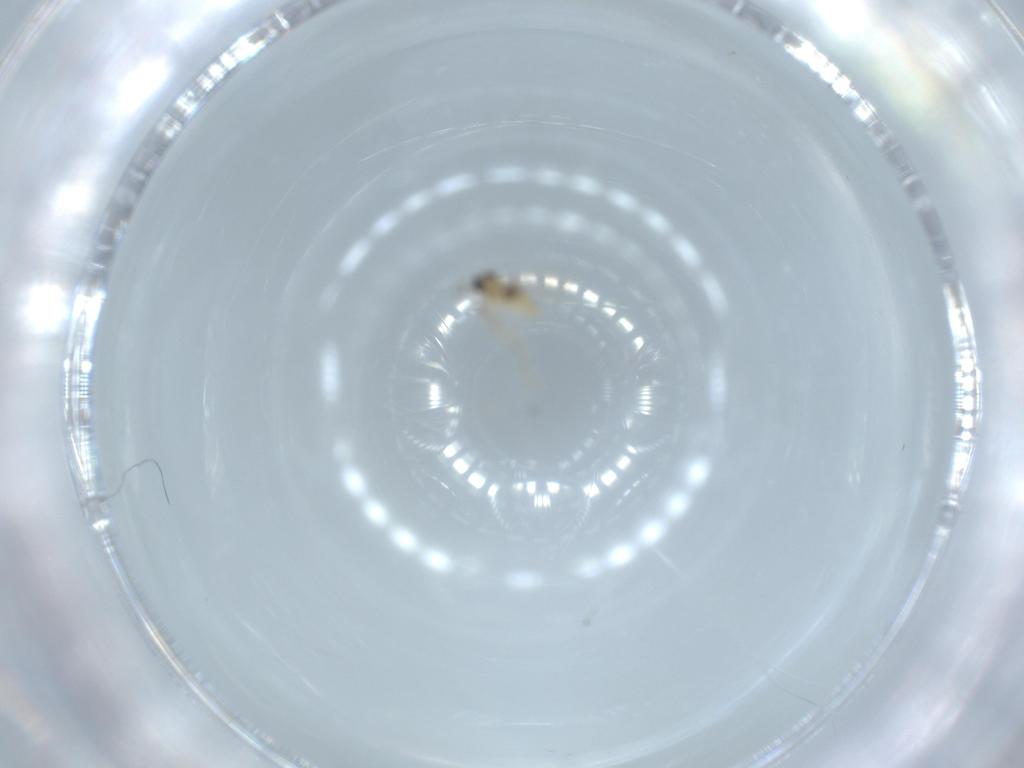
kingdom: Animalia
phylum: Arthropoda
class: Insecta
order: Diptera
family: Cecidomyiidae
